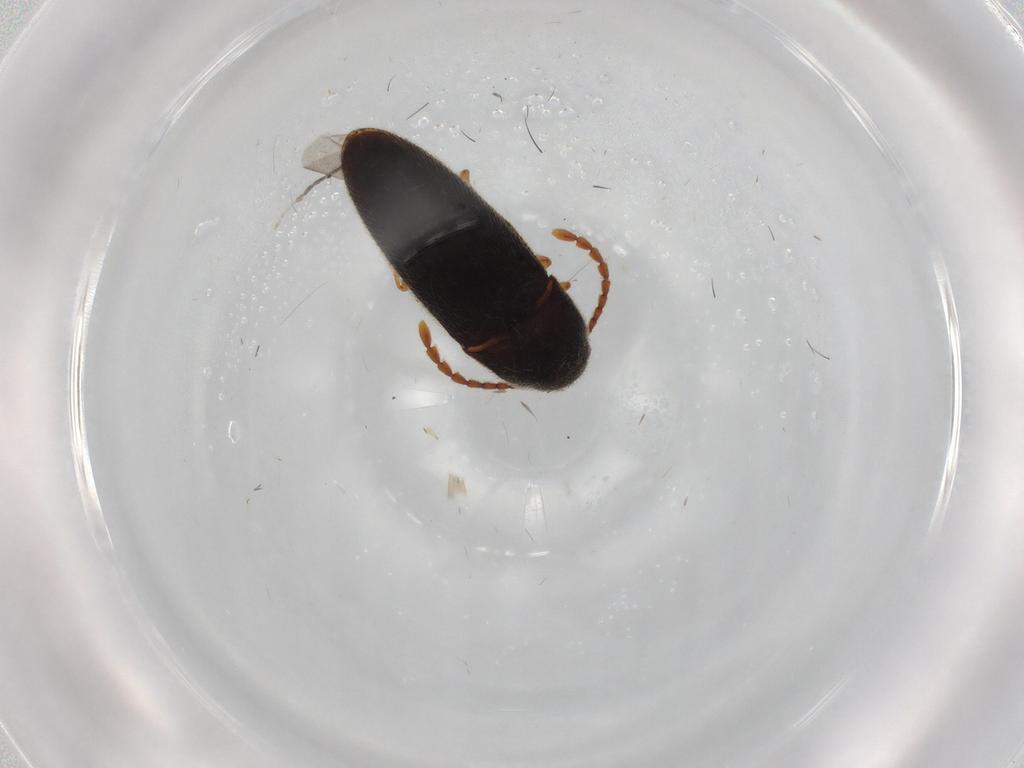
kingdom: Animalia
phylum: Arthropoda
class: Insecta
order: Coleoptera
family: Elateridae
